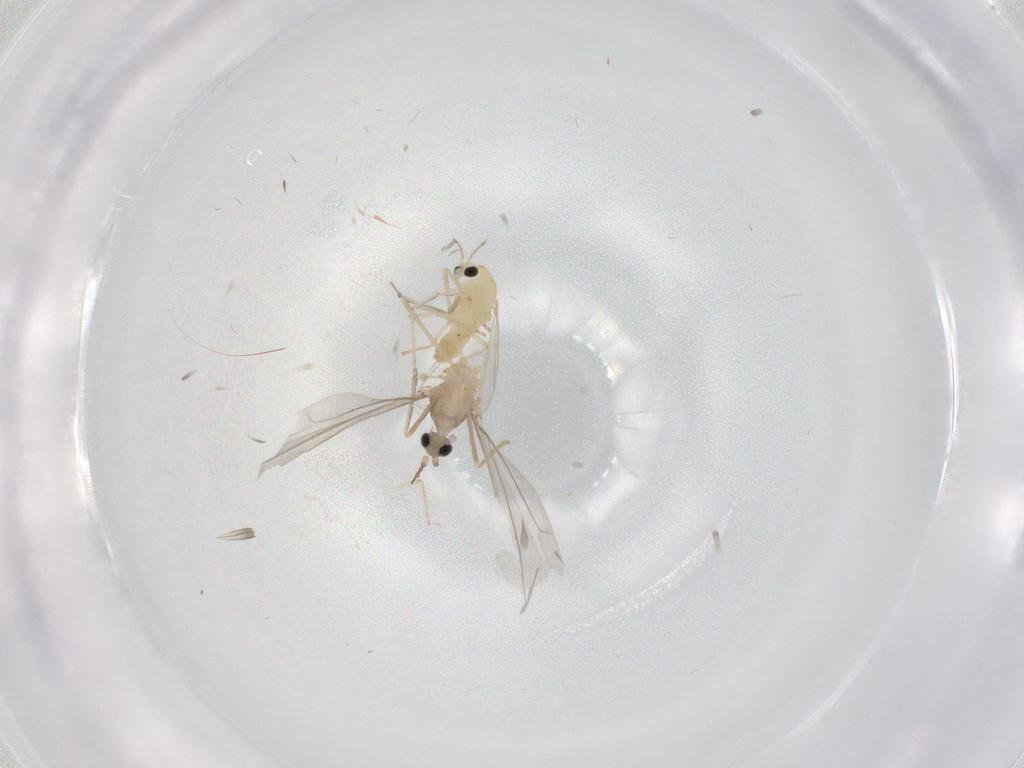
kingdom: Animalia
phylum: Arthropoda
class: Insecta
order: Diptera
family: Cecidomyiidae
